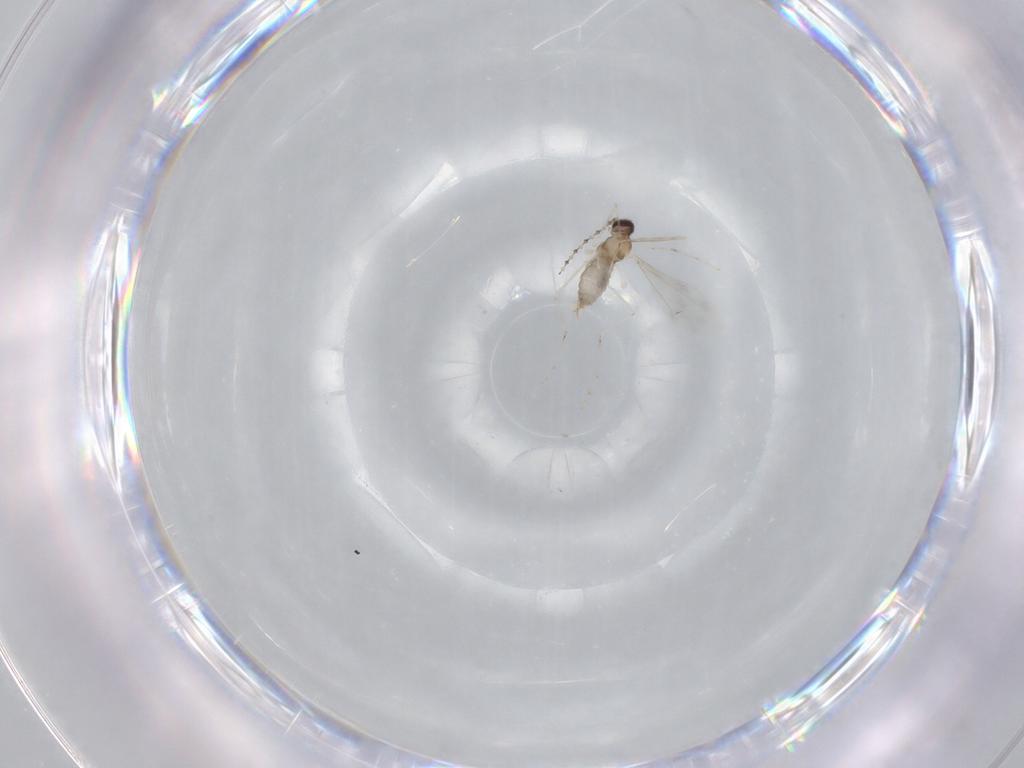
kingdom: Animalia
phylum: Arthropoda
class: Insecta
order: Diptera
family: Cecidomyiidae
